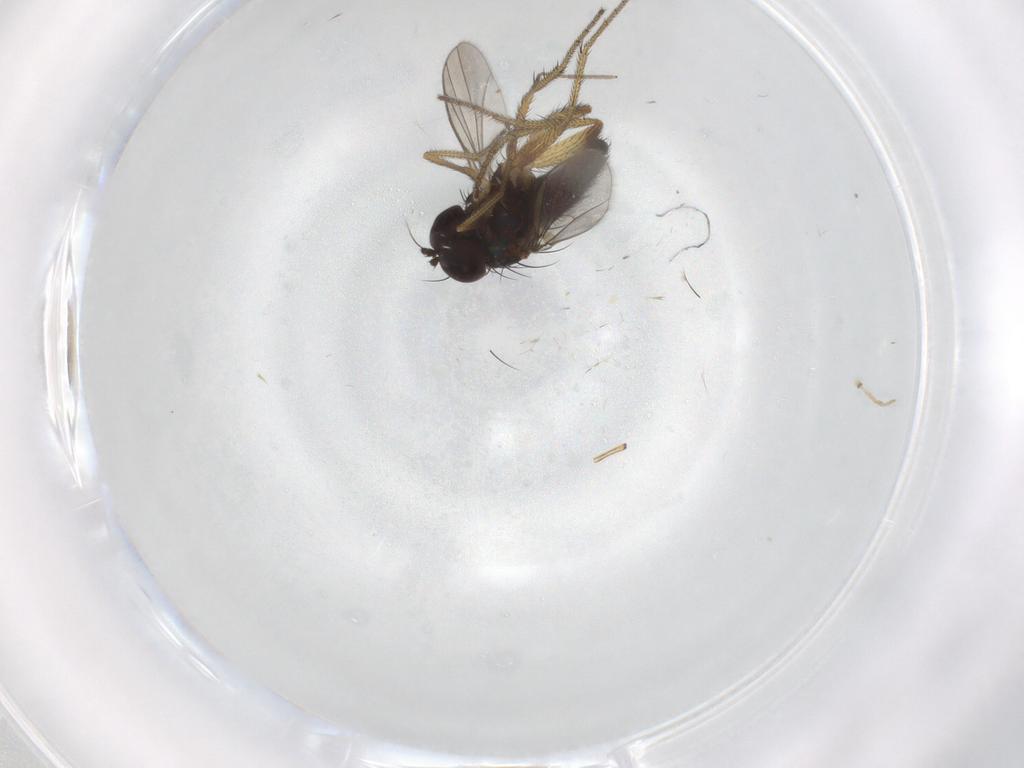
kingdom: Animalia
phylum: Arthropoda
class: Insecta
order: Diptera
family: Chironomidae
